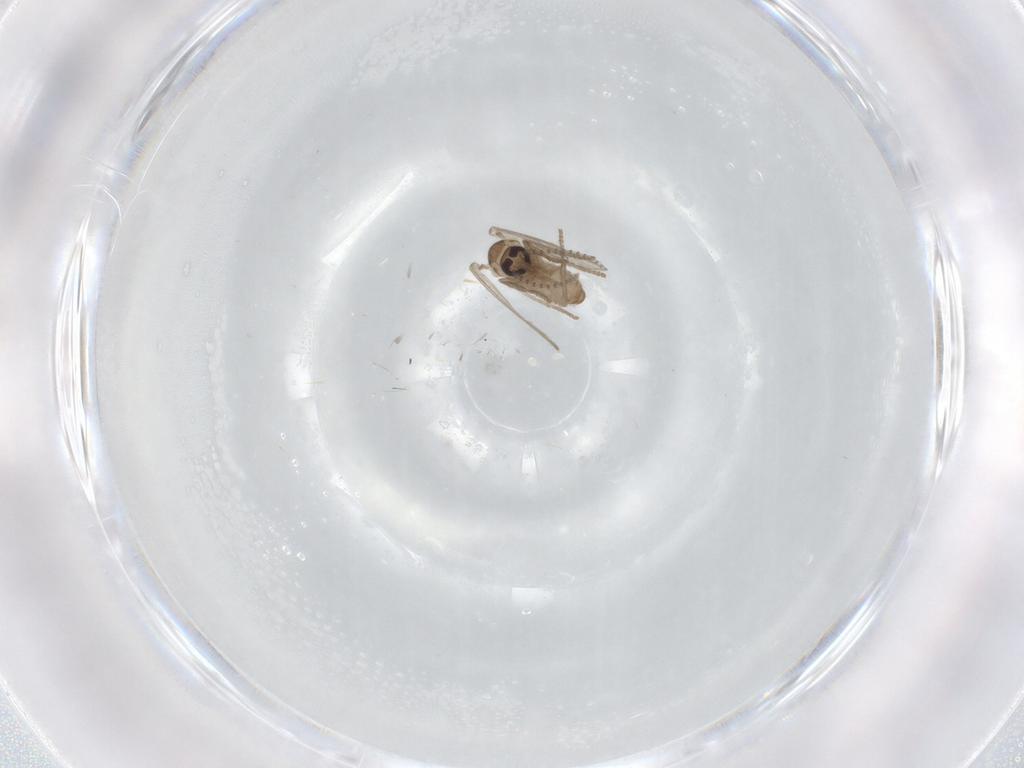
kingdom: Animalia
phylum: Arthropoda
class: Insecta
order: Diptera
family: Psychodidae
